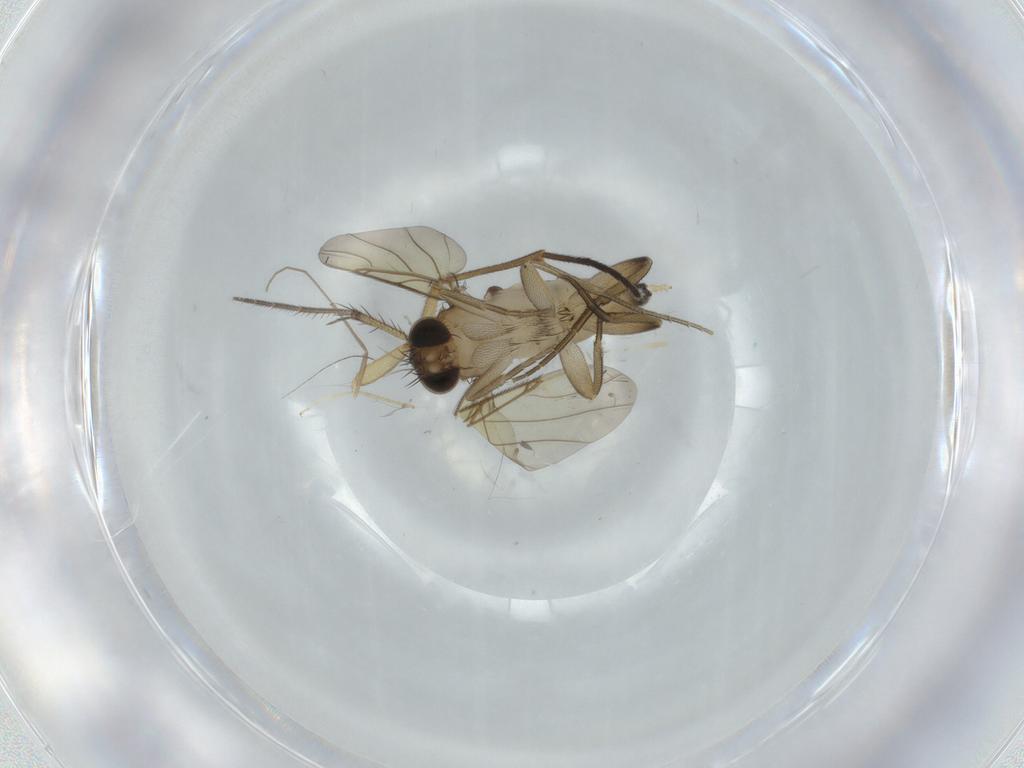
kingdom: Animalia
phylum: Arthropoda
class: Insecta
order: Diptera
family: Phoridae
